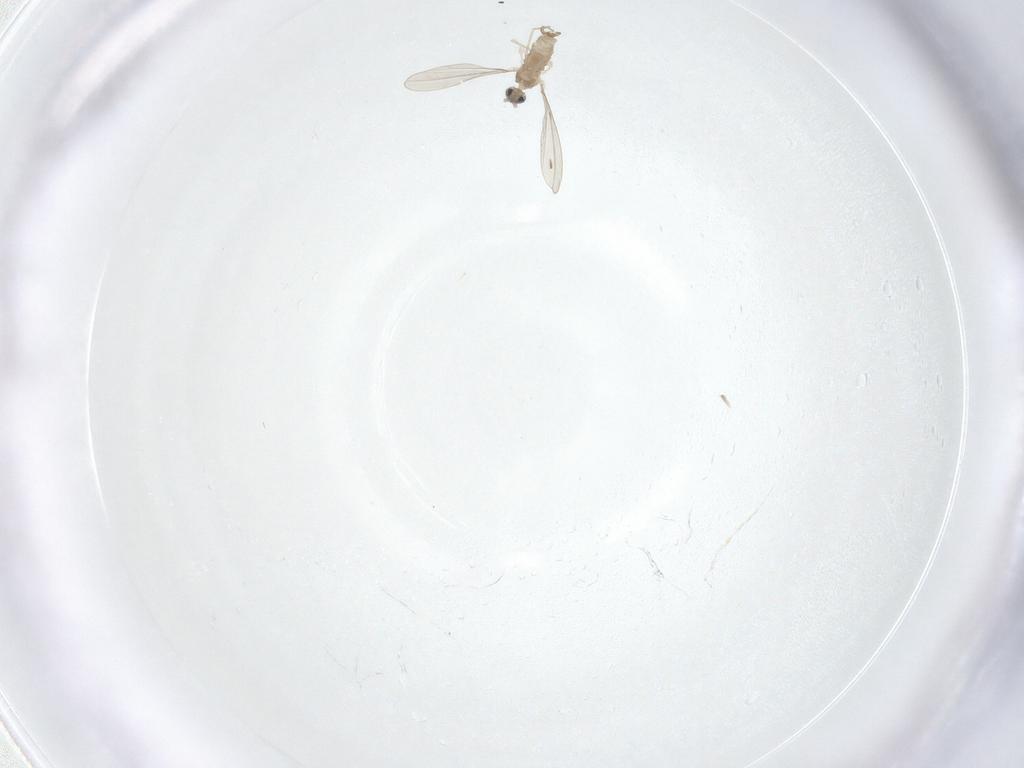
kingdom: Animalia
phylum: Arthropoda
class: Insecta
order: Diptera
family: Cecidomyiidae
